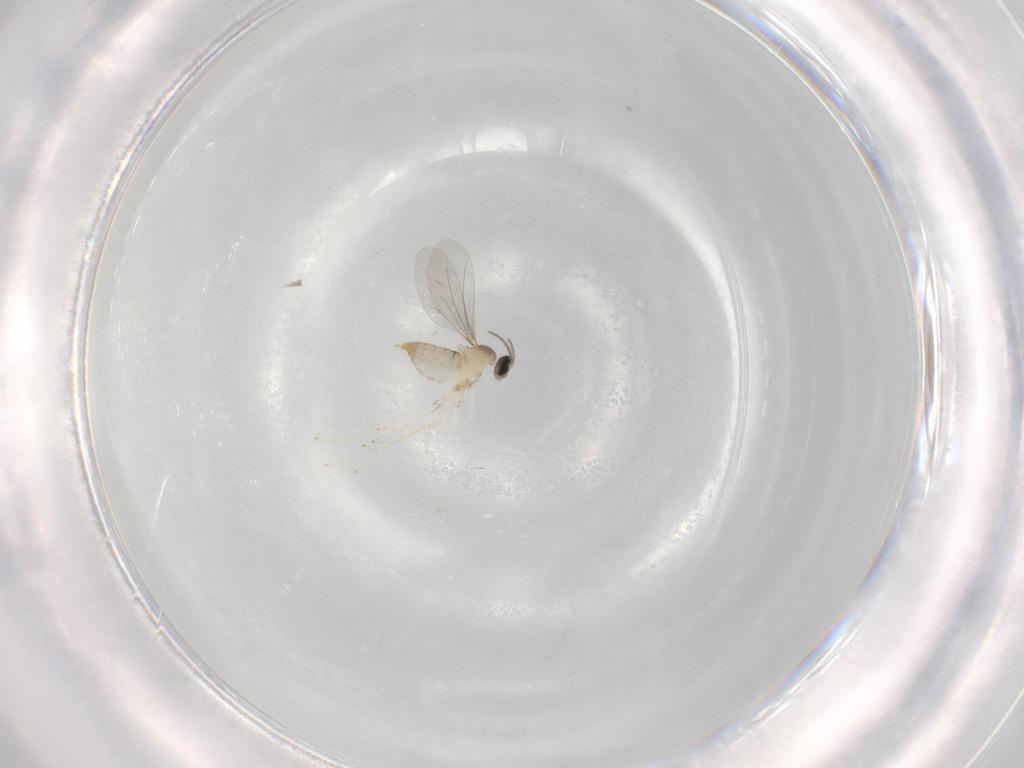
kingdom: Animalia
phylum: Arthropoda
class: Insecta
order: Diptera
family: Cecidomyiidae
